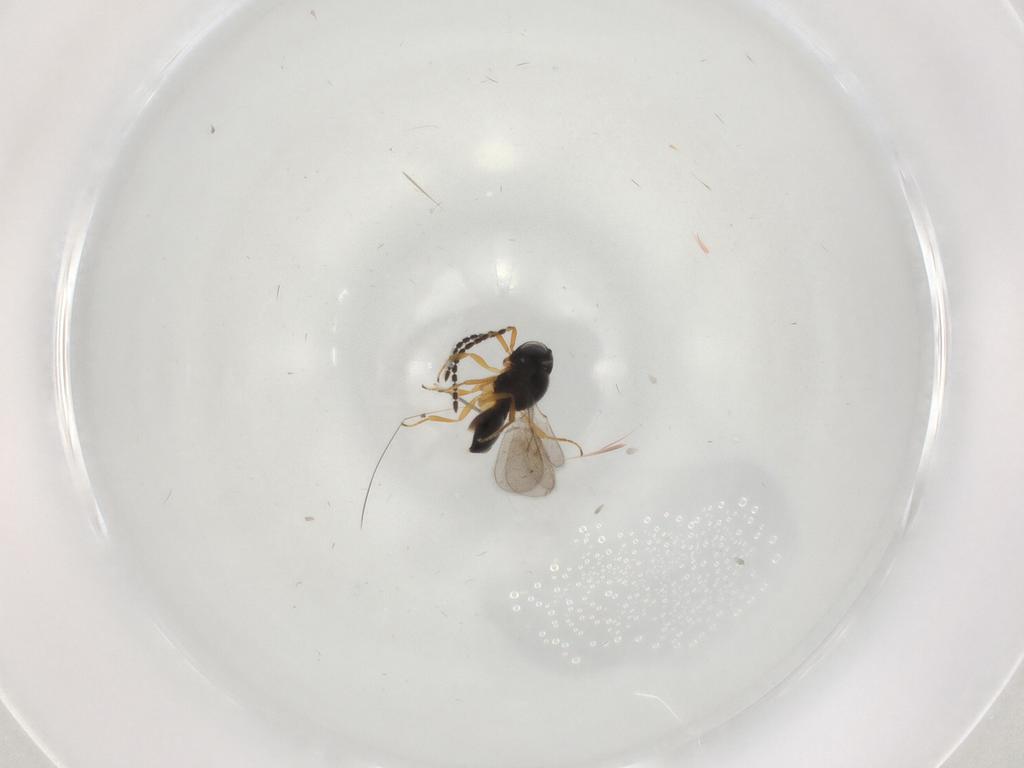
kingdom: Animalia
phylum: Arthropoda
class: Insecta
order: Hymenoptera
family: Scelionidae
